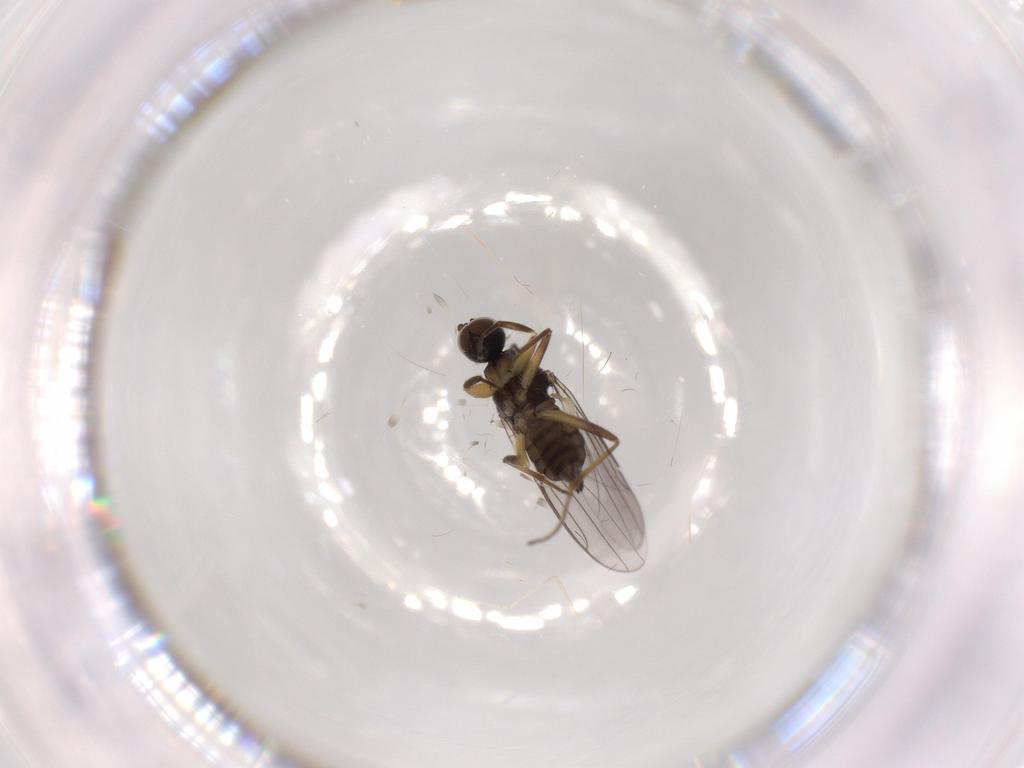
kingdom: Animalia
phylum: Arthropoda
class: Insecta
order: Diptera
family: Hybotidae
